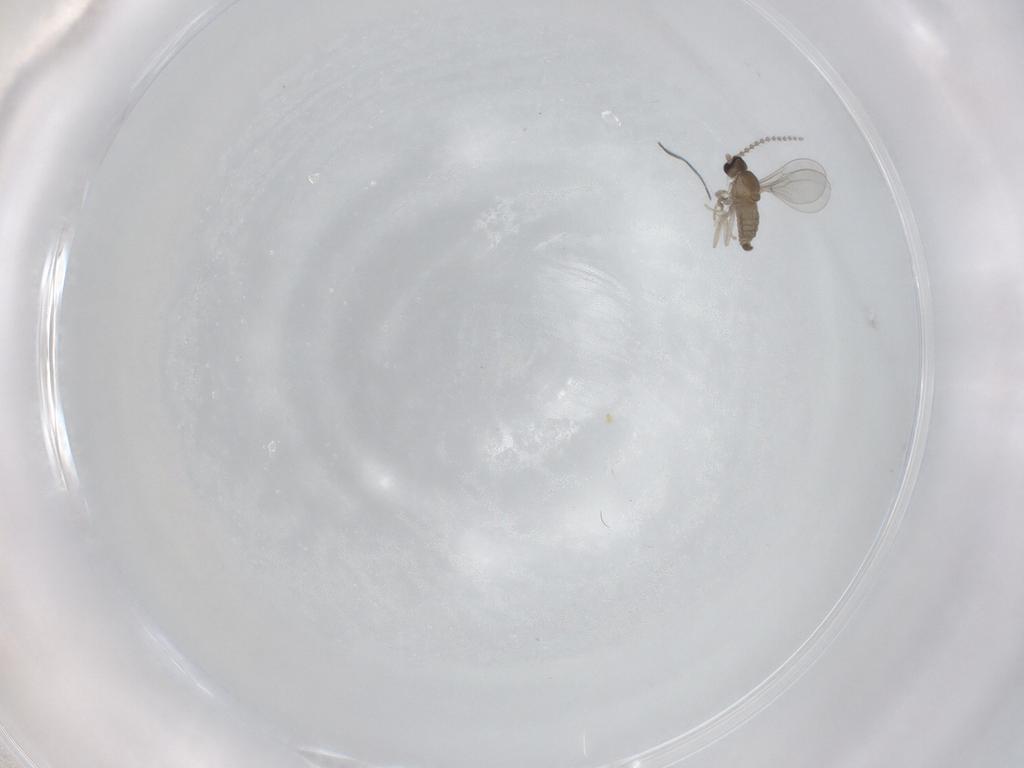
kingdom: Animalia
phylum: Arthropoda
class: Insecta
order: Diptera
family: Cecidomyiidae
